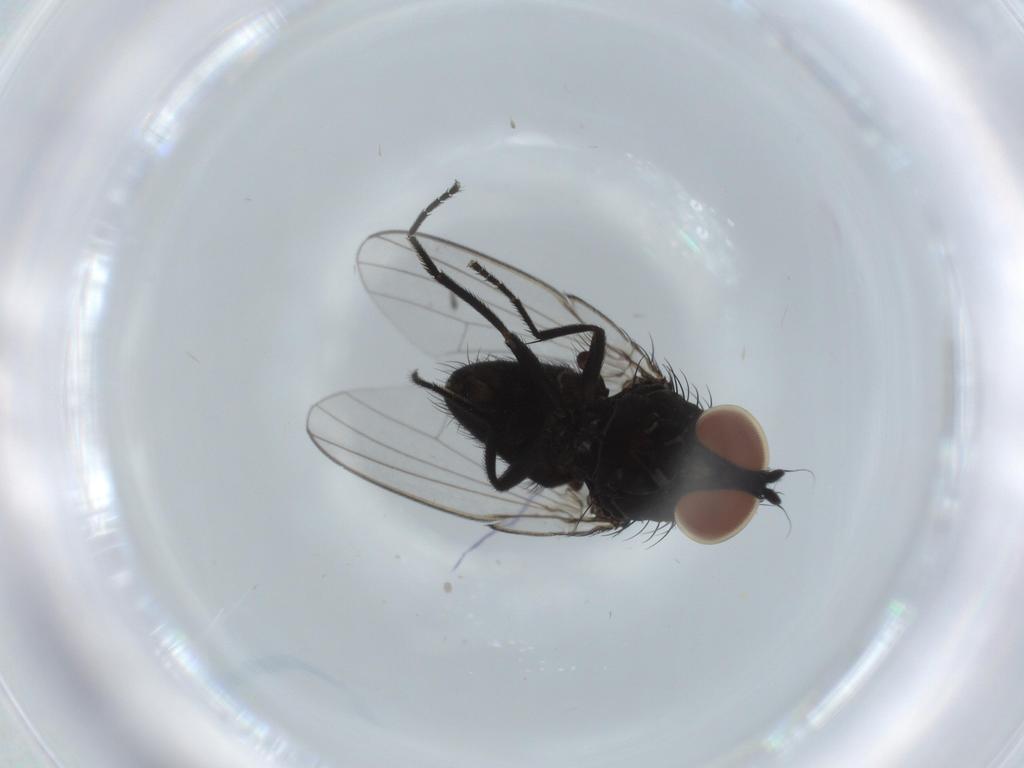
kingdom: Animalia
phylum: Arthropoda
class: Insecta
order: Diptera
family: Milichiidae
